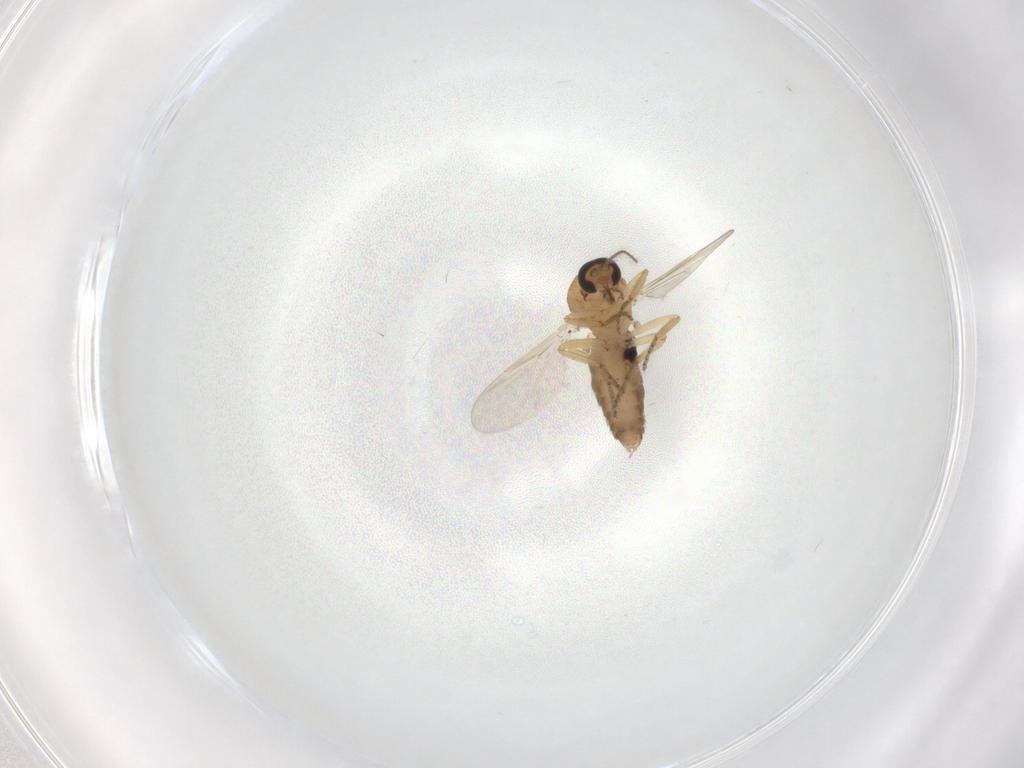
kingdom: Animalia
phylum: Arthropoda
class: Insecta
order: Diptera
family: Ceratopogonidae
